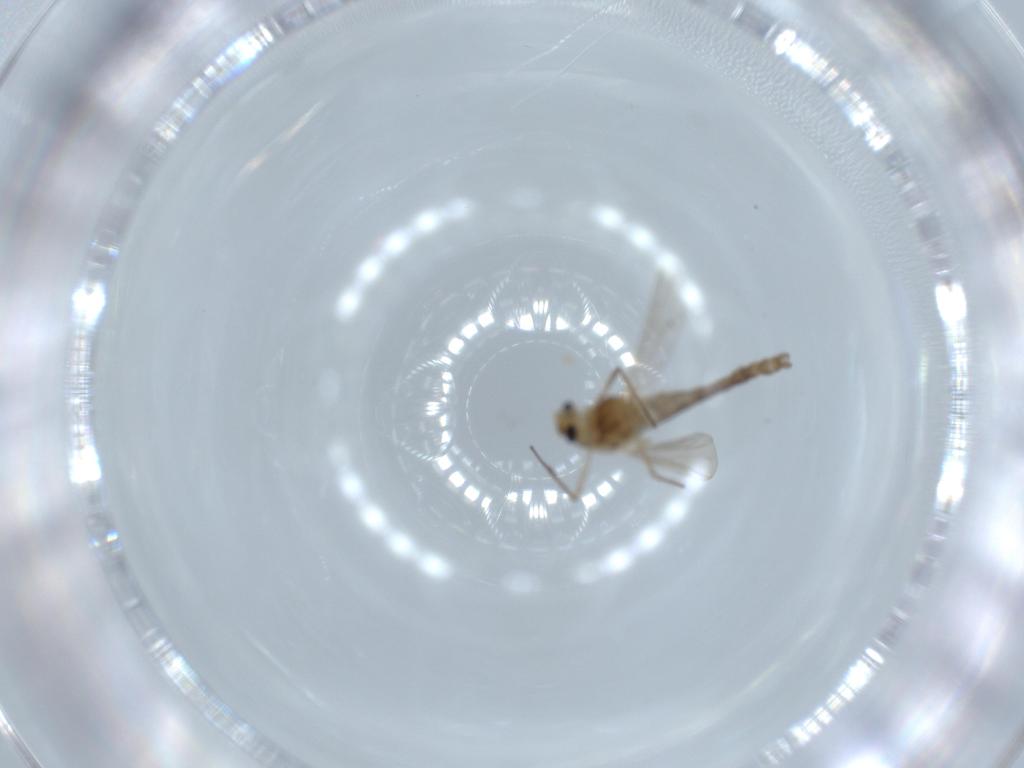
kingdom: Animalia
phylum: Arthropoda
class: Insecta
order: Diptera
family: Chironomidae
